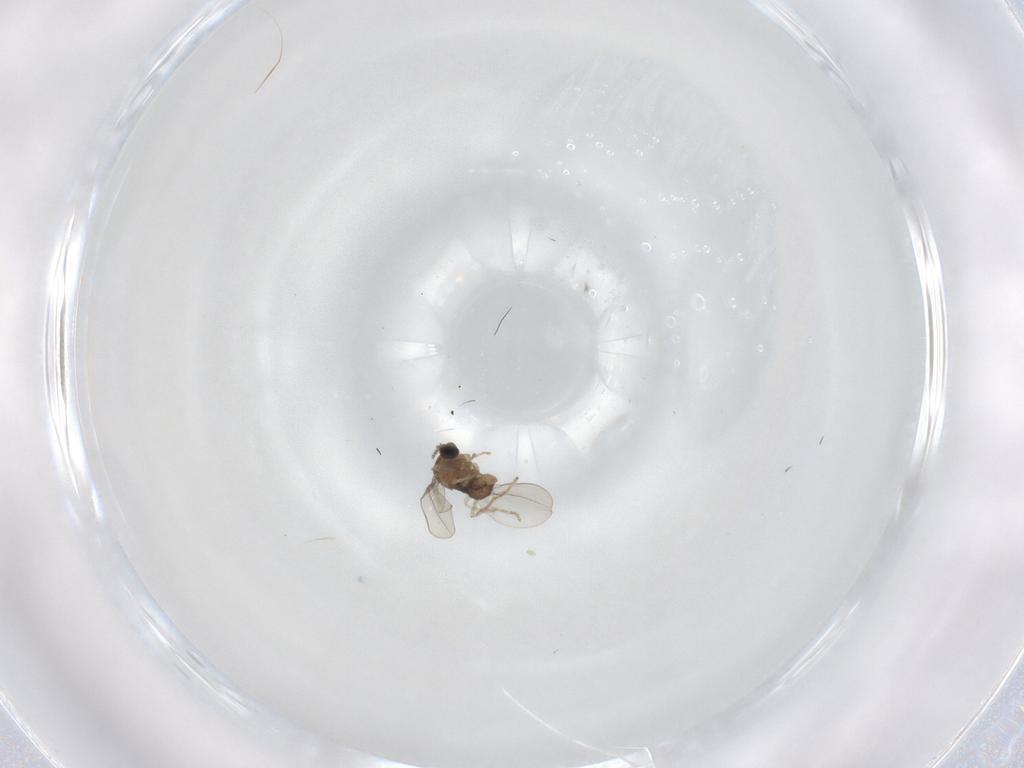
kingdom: Animalia
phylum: Arthropoda
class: Insecta
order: Diptera
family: Cecidomyiidae
